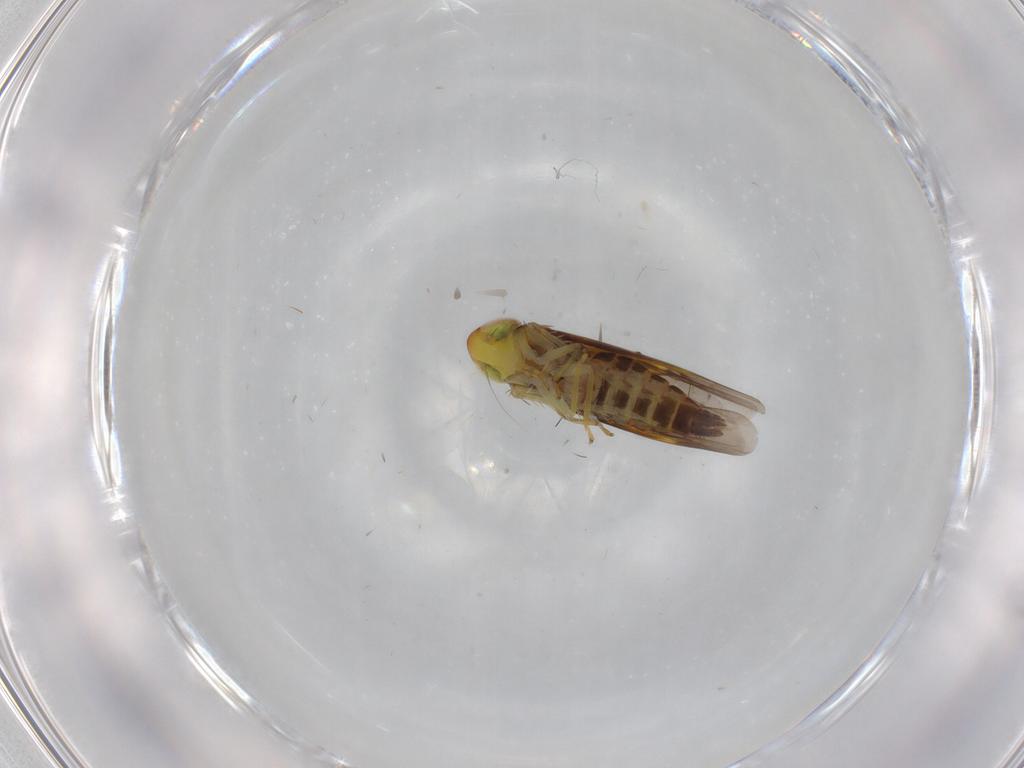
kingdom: Animalia
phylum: Arthropoda
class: Insecta
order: Hemiptera
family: Cicadellidae
